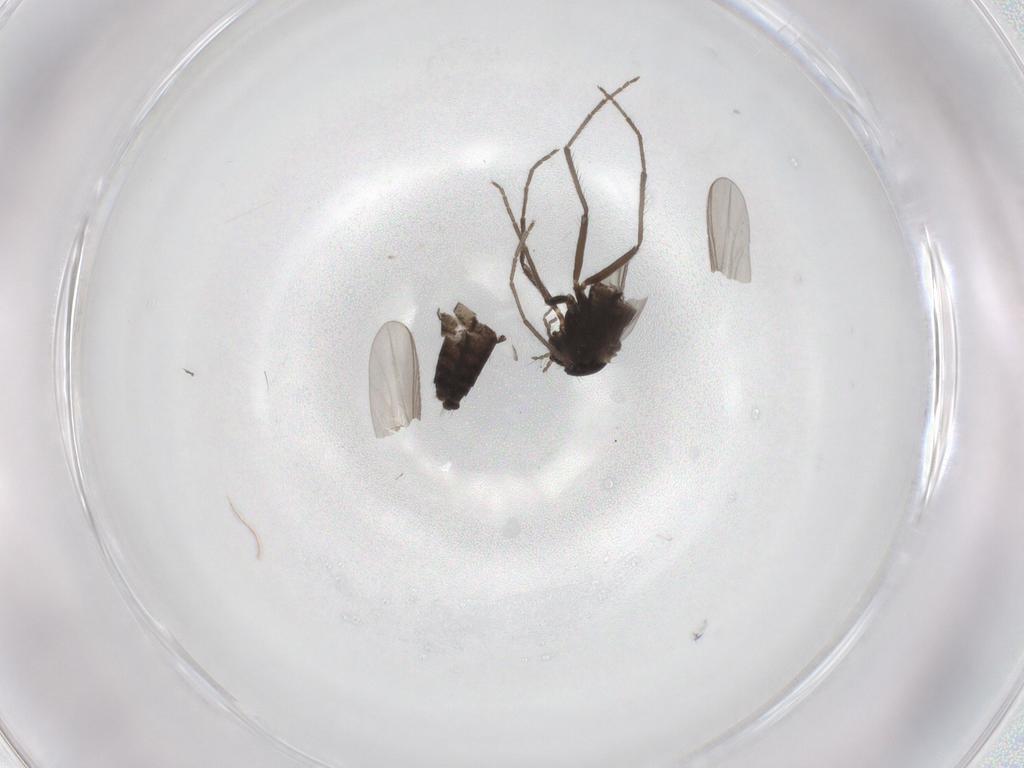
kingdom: Animalia
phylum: Arthropoda
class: Insecta
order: Diptera
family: Chironomidae
